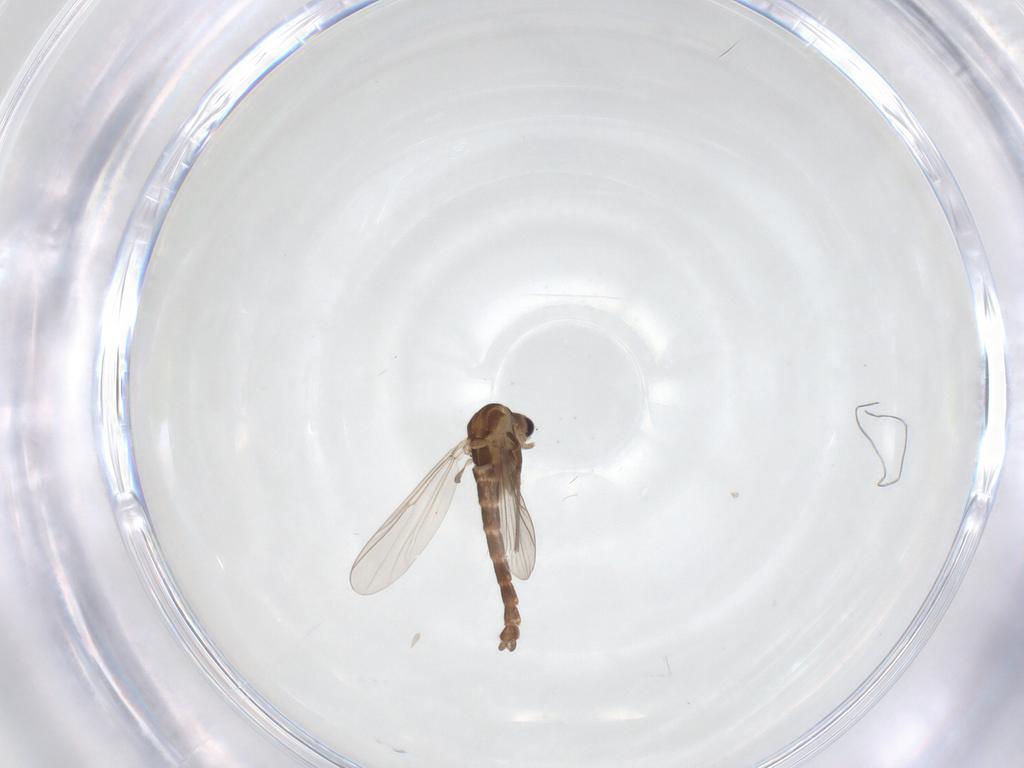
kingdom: Animalia
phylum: Arthropoda
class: Insecta
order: Diptera
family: Chironomidae
